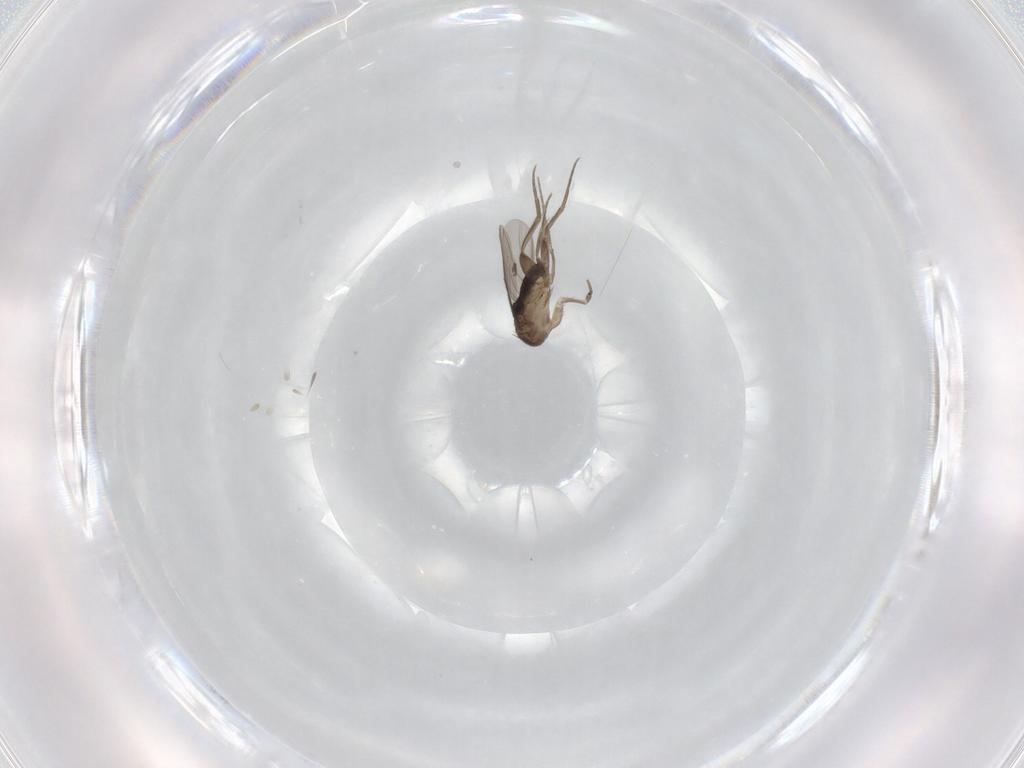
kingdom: Animalia
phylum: Arthropoda
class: Insecta
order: Diptera
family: Phoridae
